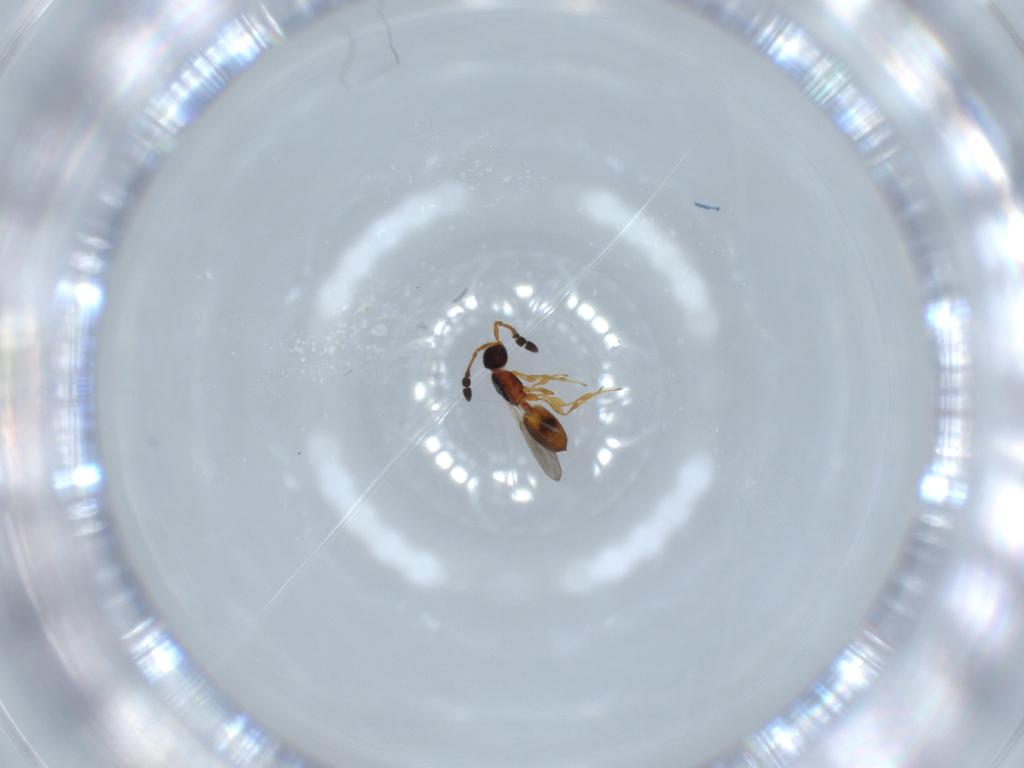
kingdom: Animalia
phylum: Arthropoda
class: Insecta
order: Hymenoptera
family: Diapriidae
